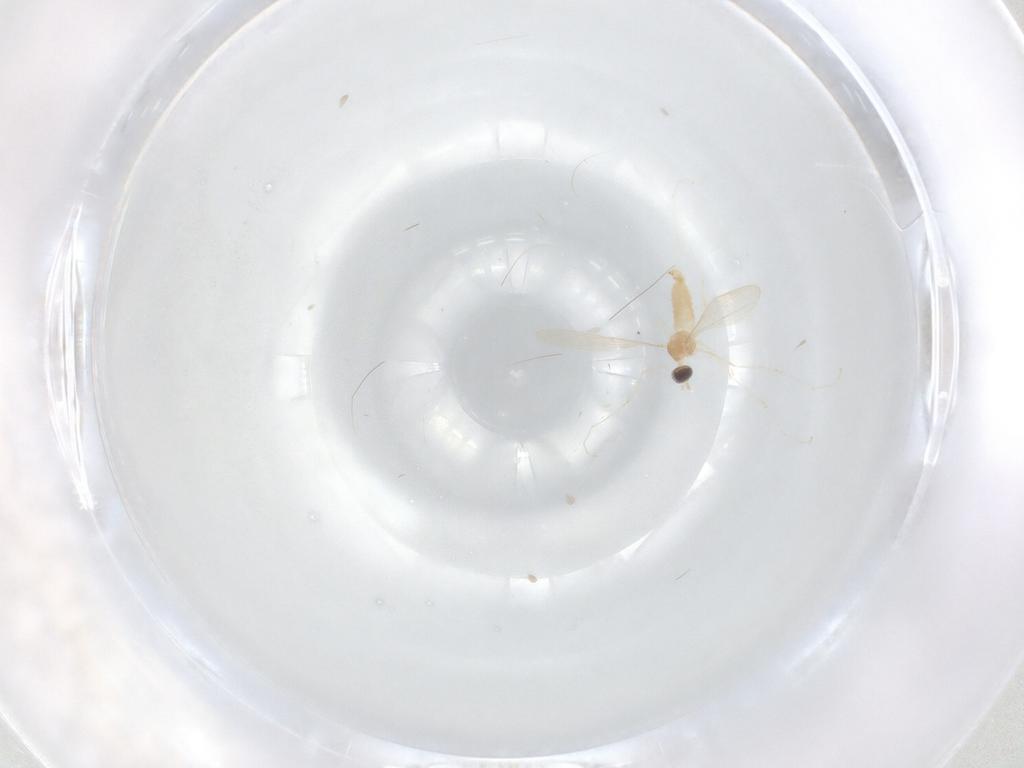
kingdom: Animalia
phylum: Arthropoda
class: Insecta
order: Diptera
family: Cecidomyiidae
